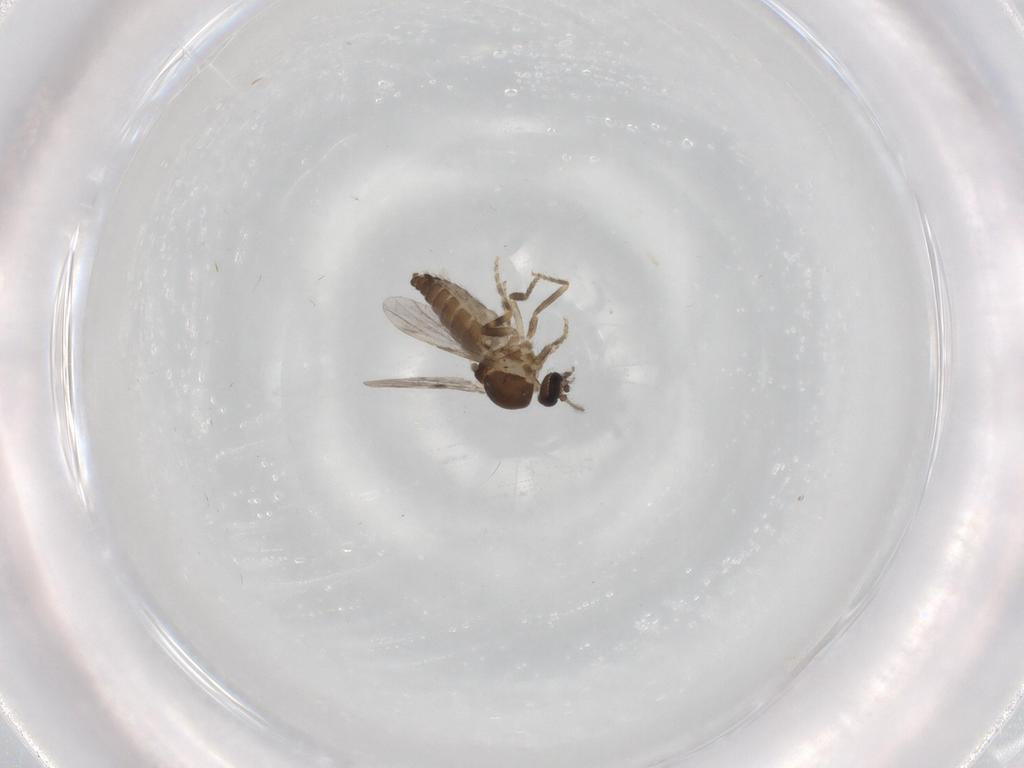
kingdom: Animalia
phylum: Arthropoda
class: Insecta
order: Diptera
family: Ceratopogonidae
